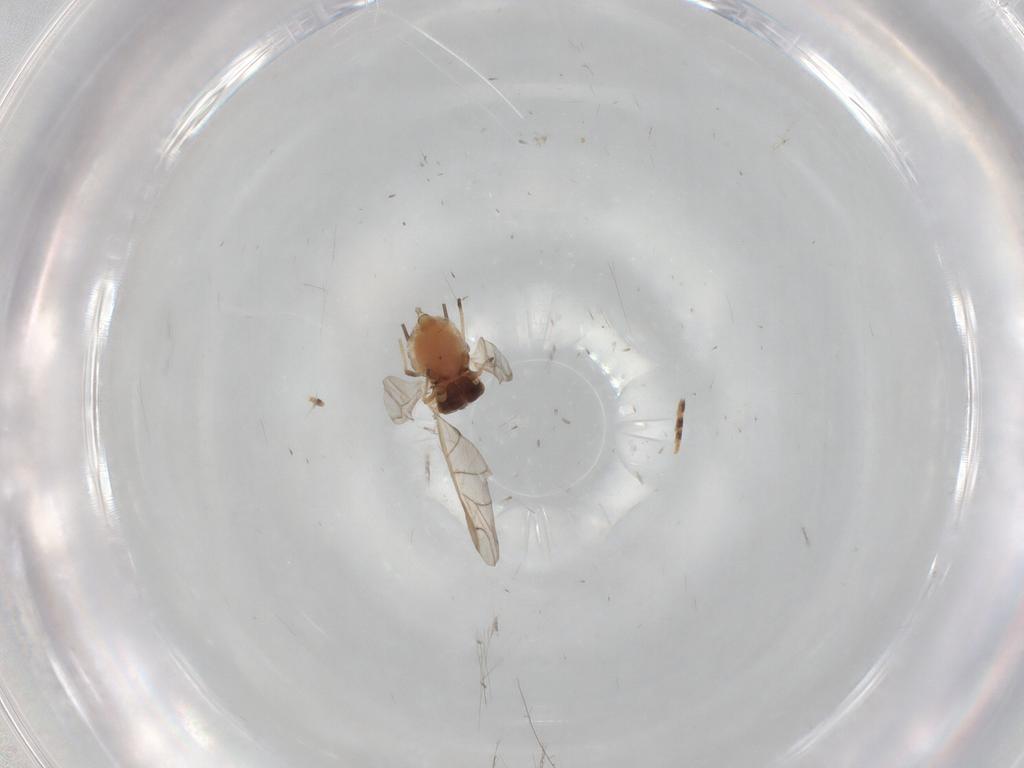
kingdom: Animalia
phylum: Arthropoda
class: Insecta
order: Hemiptera
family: Aphididae
